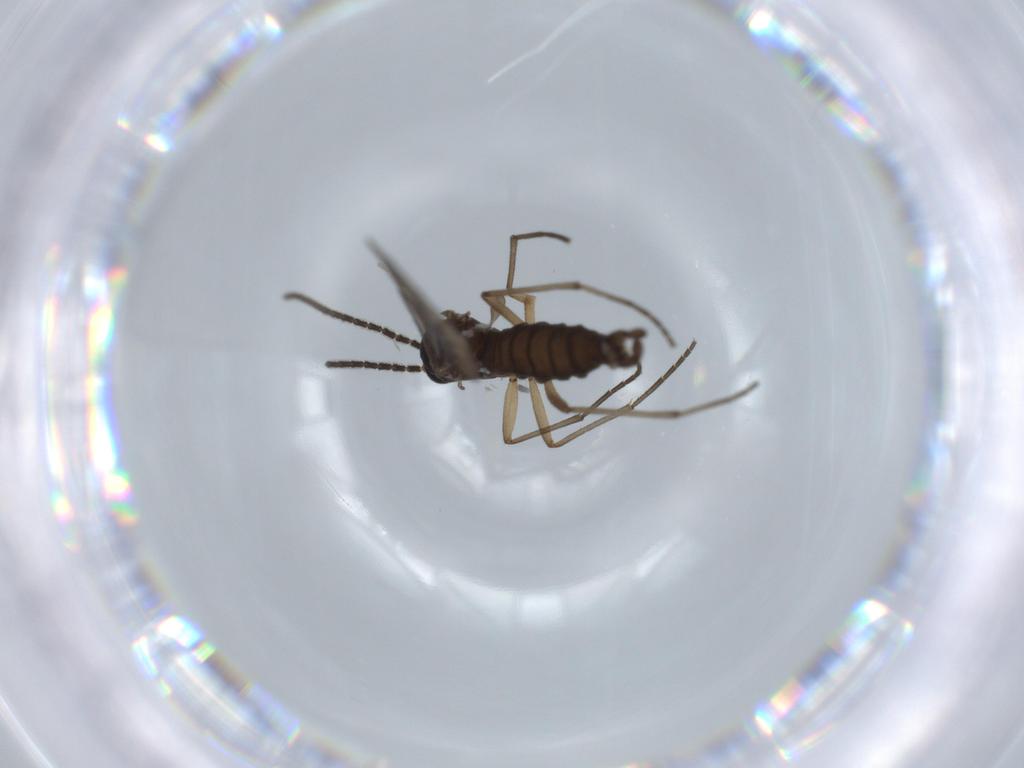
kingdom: Animalia
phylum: Arthropoda
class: Insecta
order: Diptera
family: Sciaridae
